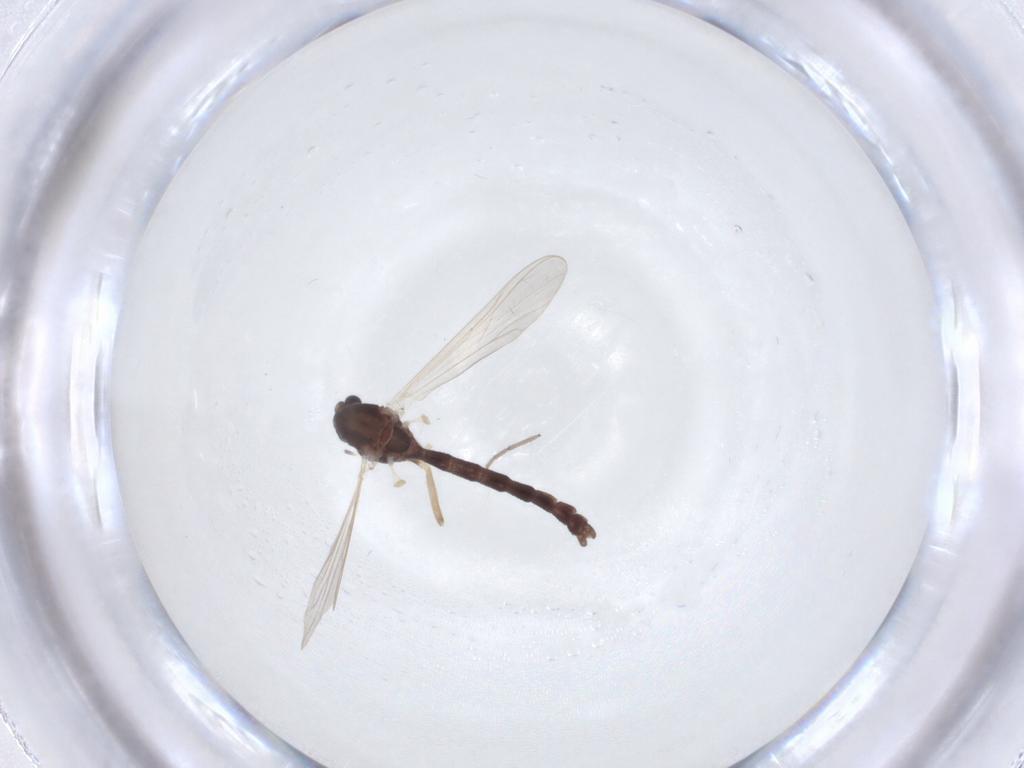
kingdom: Animalia
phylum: Arthropoda
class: Insecta
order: Diptera
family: Chironomidae
